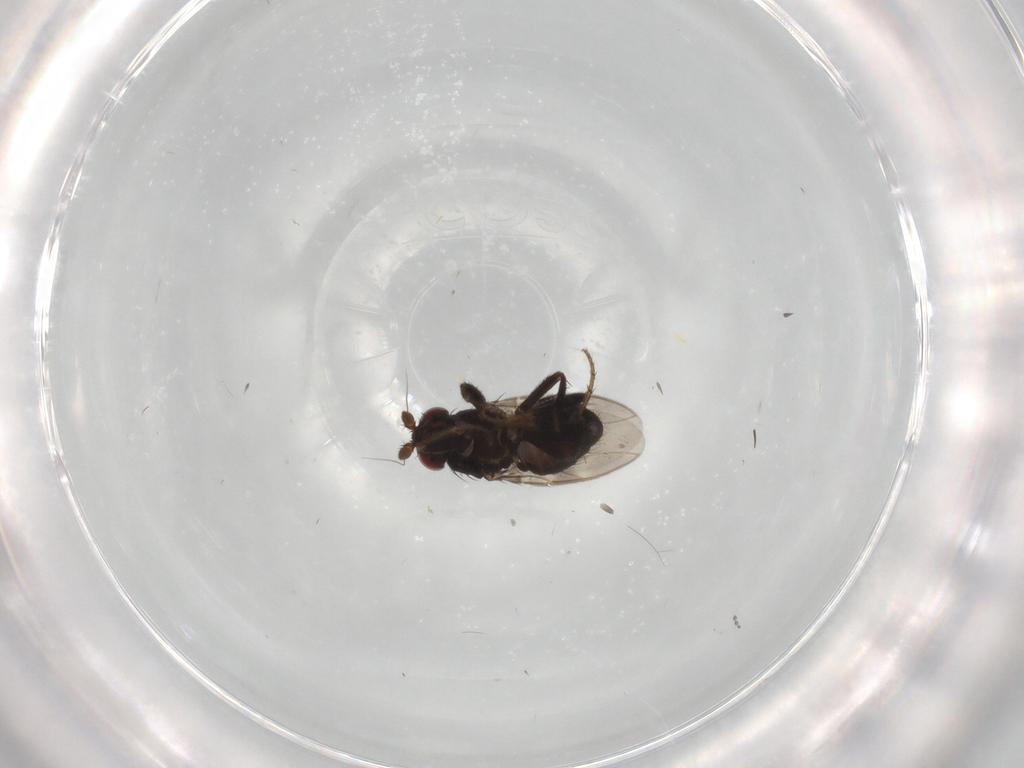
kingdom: Animalia
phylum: Arthropoda
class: Insecta
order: Diptera
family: Sphaeroceridae
